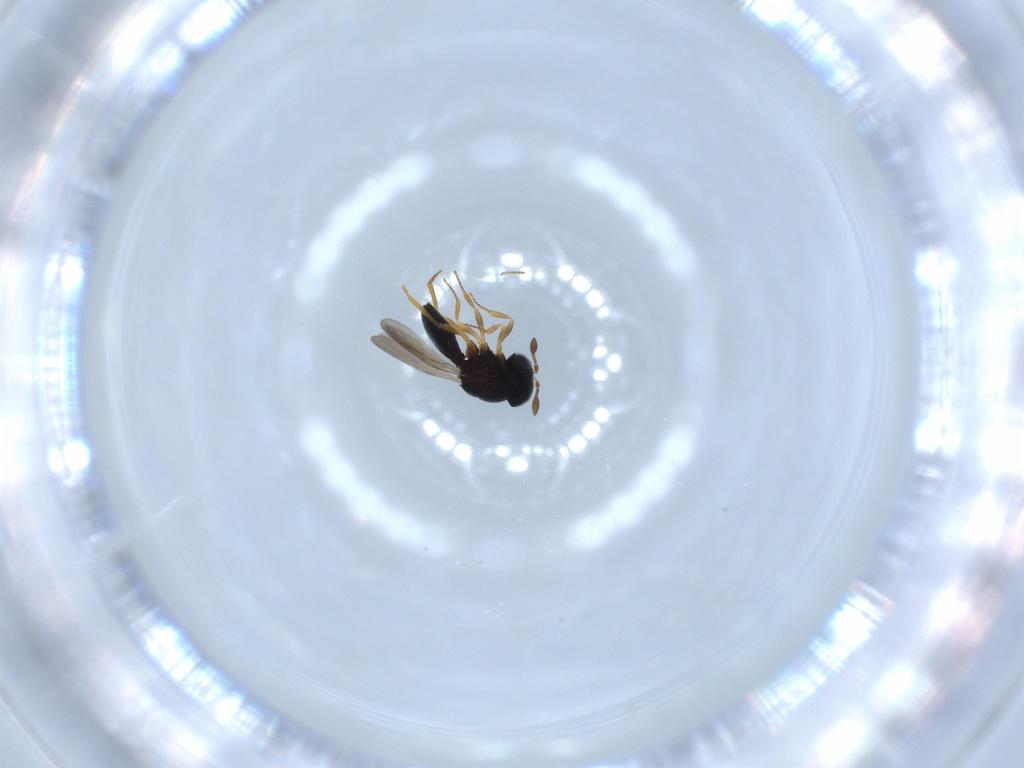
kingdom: Animalia
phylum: Arthropoda
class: Insecta
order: Hymenoptera
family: Scelionidae
